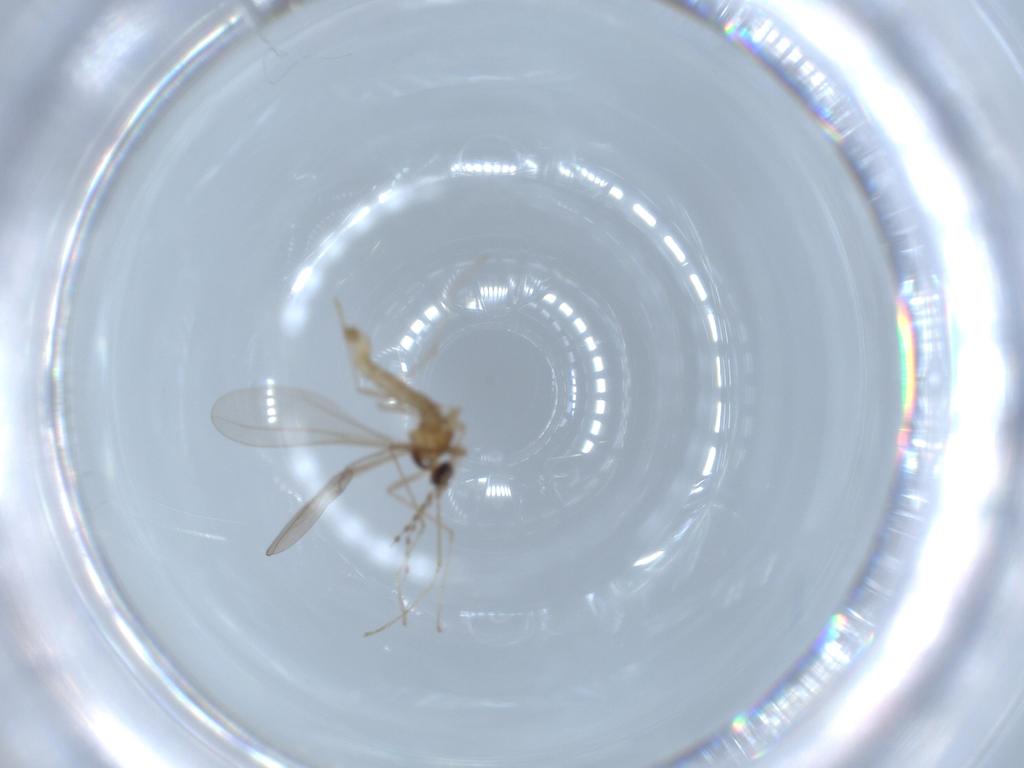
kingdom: Animalia
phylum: Arthropoda
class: Insecta
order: Diptera
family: Cecidomyiidae
